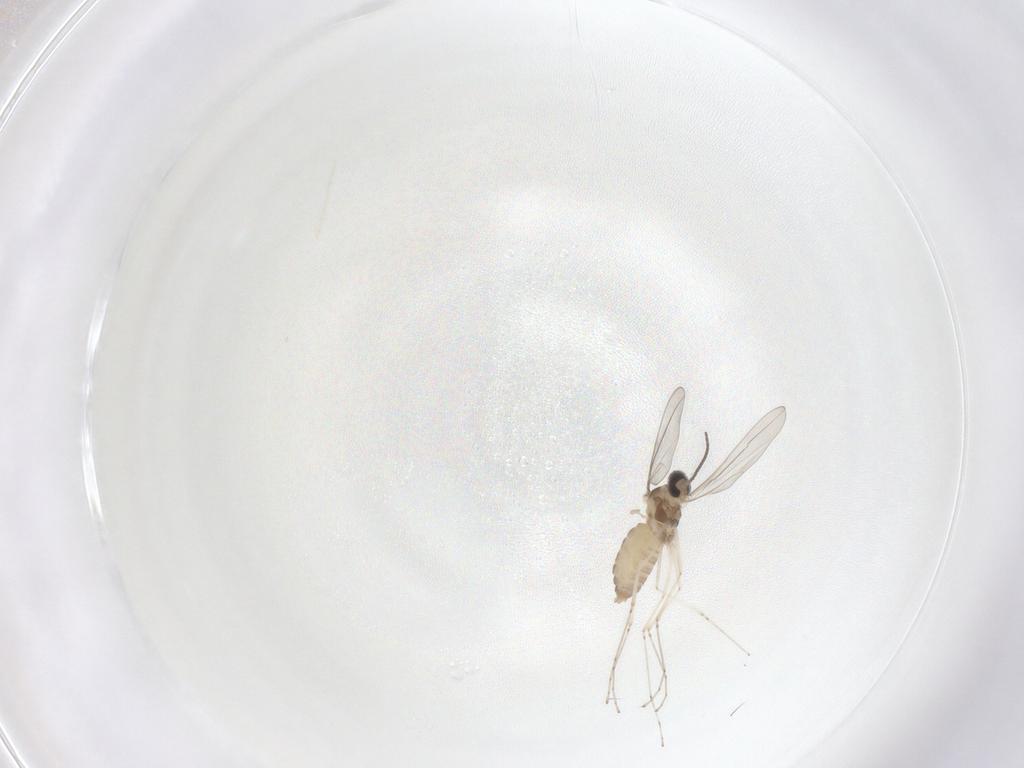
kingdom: Animalia
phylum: Arthropoda
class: Insecta
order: Diptera
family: Cecidomyiidae
